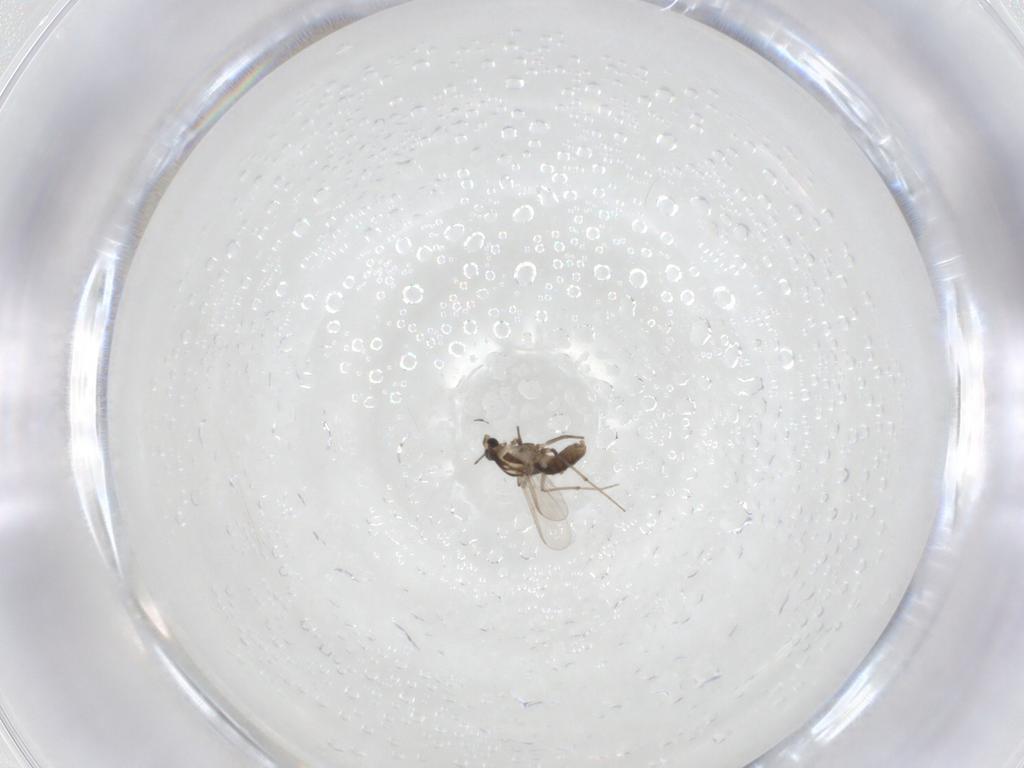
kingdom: Animalia
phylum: Arthropoda
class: Insecta
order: Diptera
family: Chironomidae
